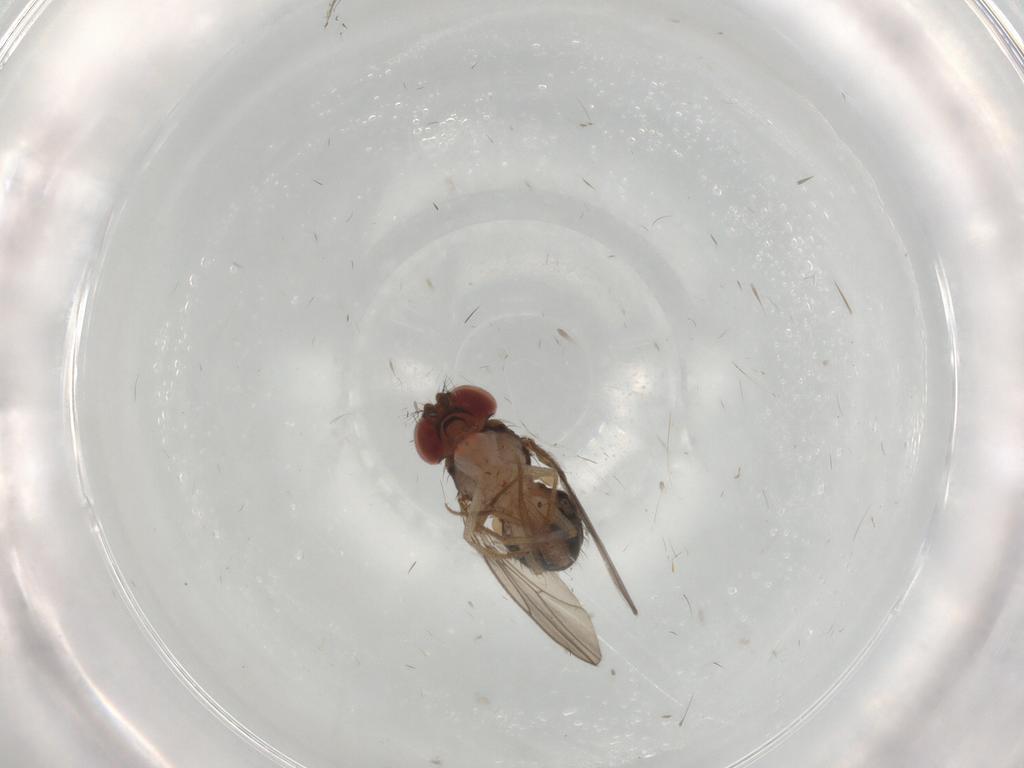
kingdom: Animalia
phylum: Arthropoda
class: Insecta
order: Diptera
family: Drosophilidae
